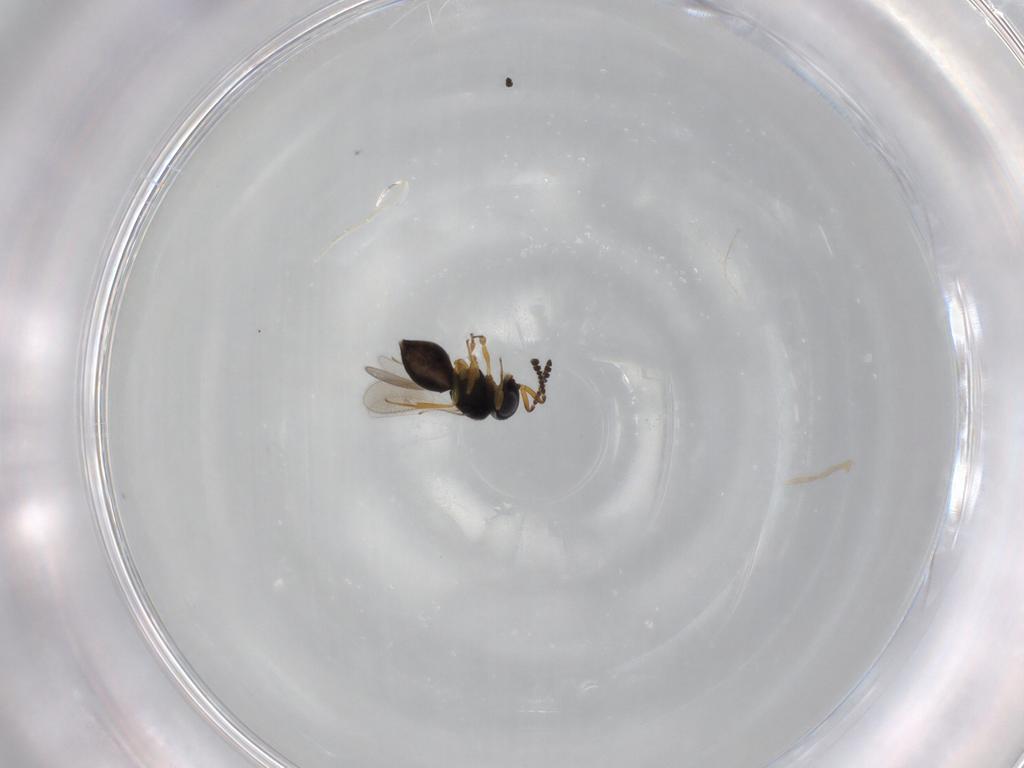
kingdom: Animalia
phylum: Arthropoda
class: Insecta
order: Hymenoptera
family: Scelionidae
